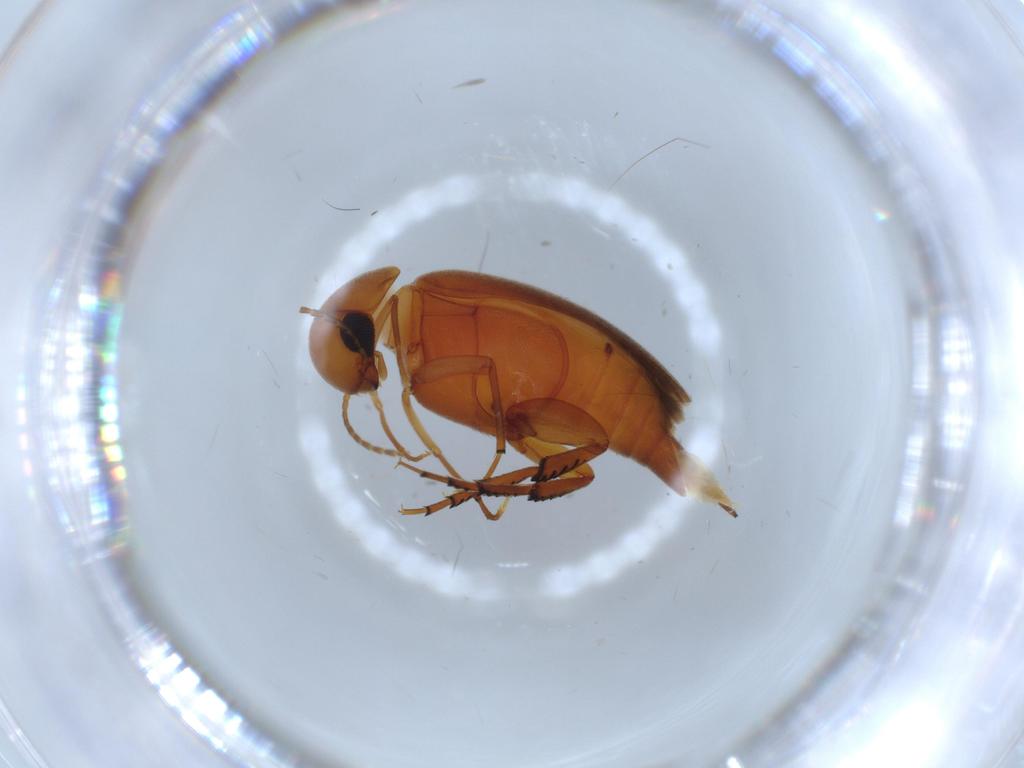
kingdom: Animalia
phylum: Arthropoda
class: Insecta
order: Coleoptera
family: Mordellidae
